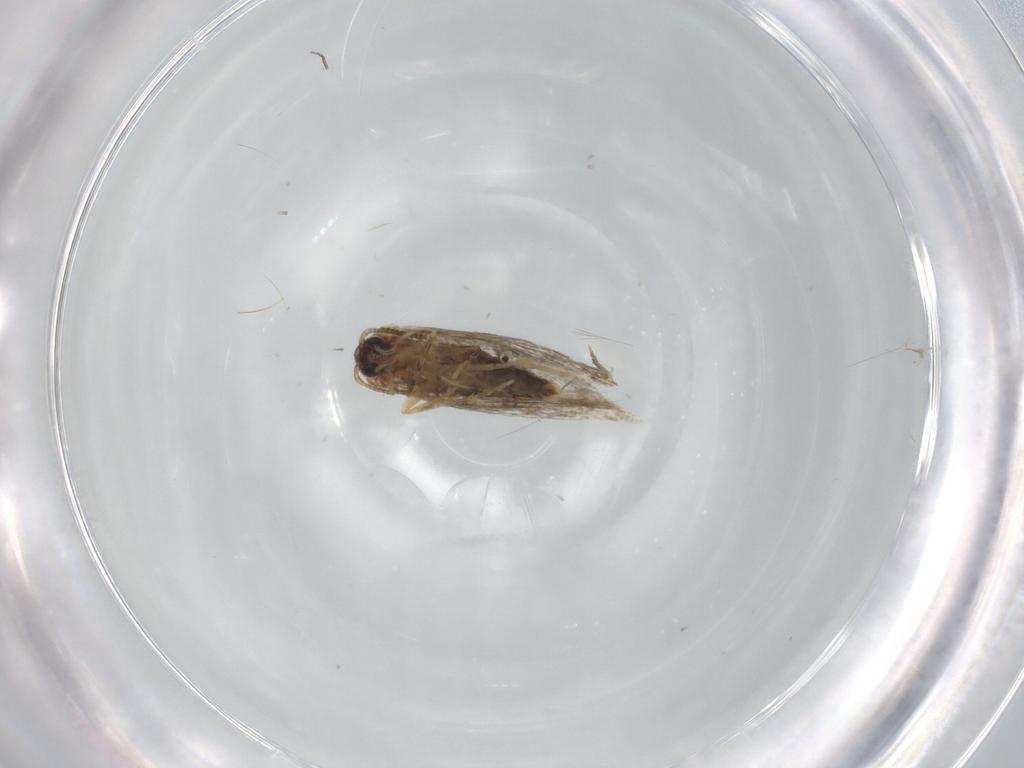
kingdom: Animalia
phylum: Arthropoda
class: Insecta
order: Lepidoptera
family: Tineidae
